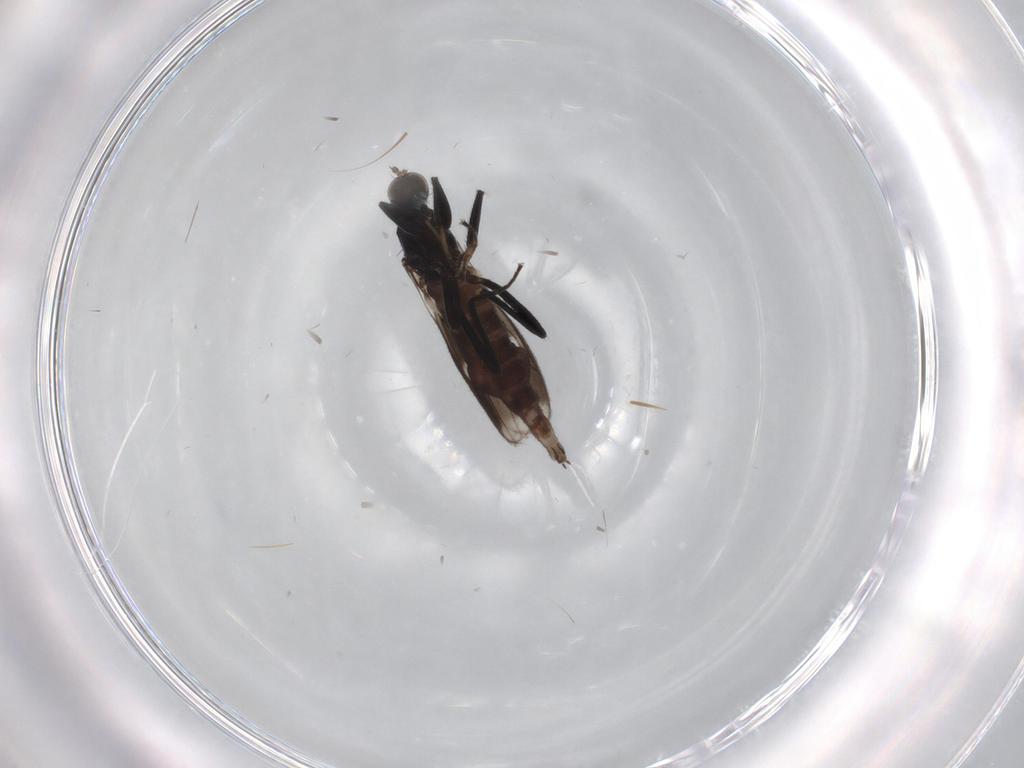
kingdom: Animalia
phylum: Arthropoda
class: Insecta
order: Diptera
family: Hybotidae
